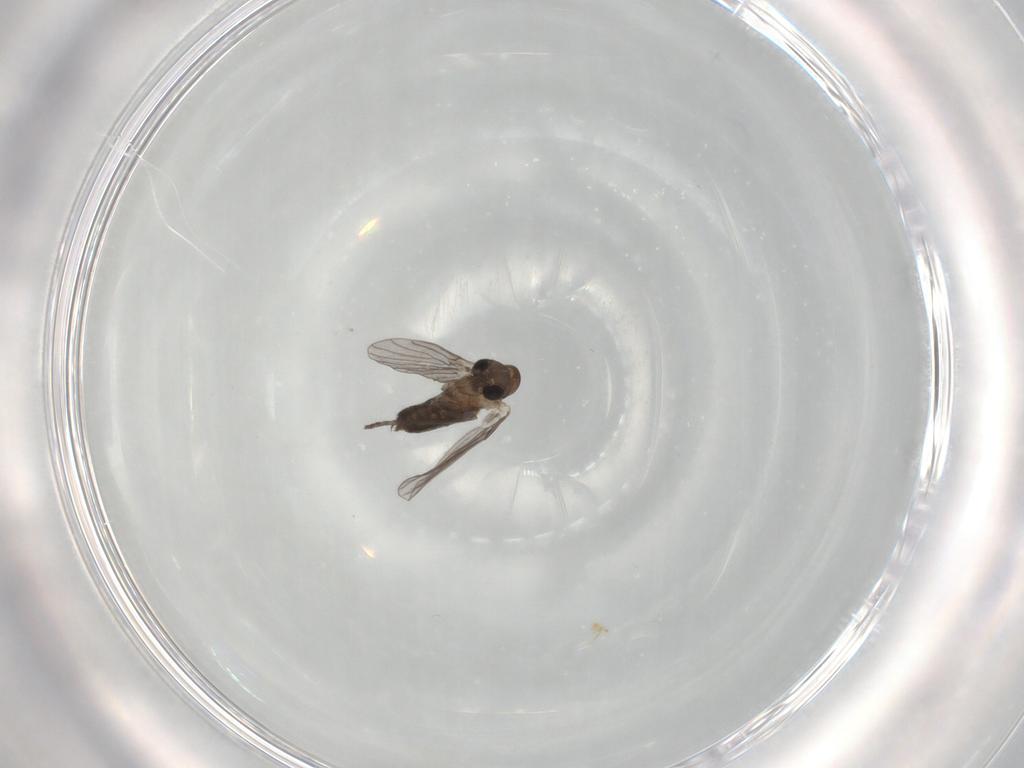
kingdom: Animalia
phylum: Arthropoda
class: Insecta
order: Diptera
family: Psychodidae
